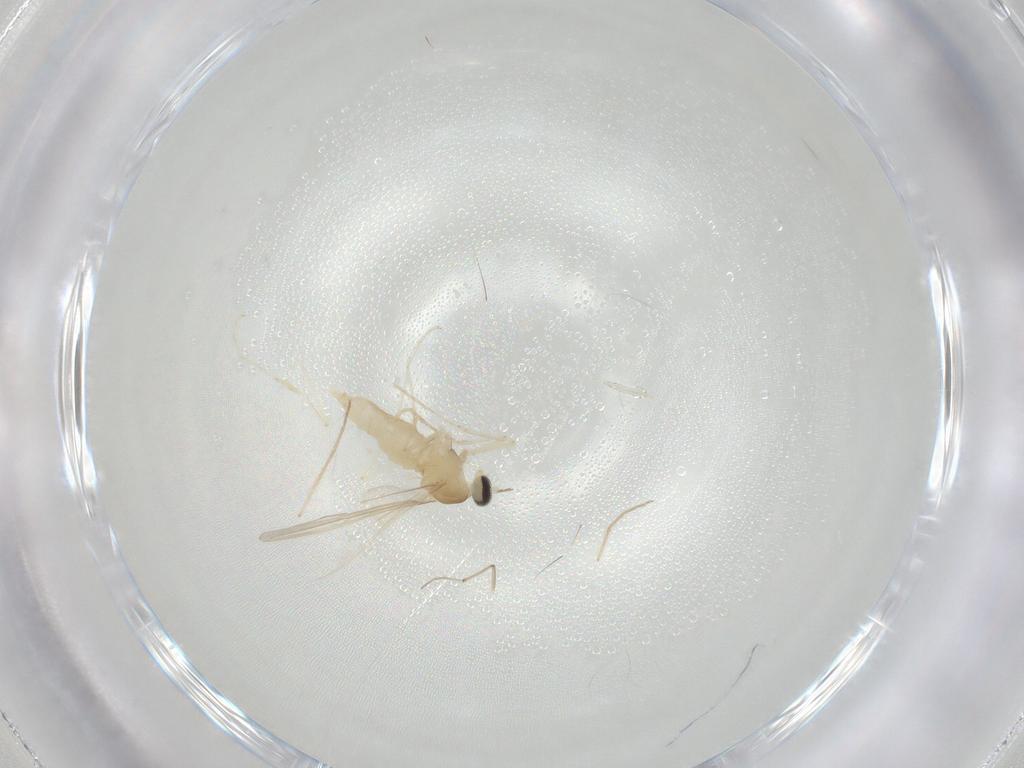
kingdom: Animalia
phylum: Arthropoda
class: Insecta
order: Diptera
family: Cecidomyiidae
